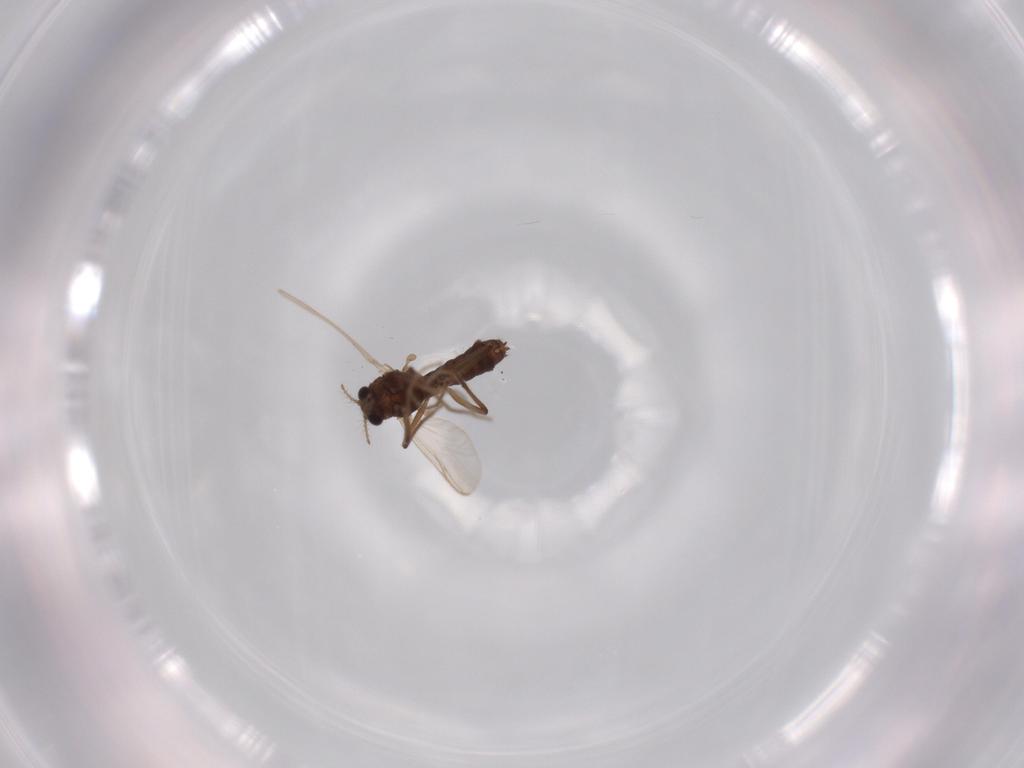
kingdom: Animalia
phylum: Arthropoda
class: Insecta
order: Diptera
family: Chironomidae
